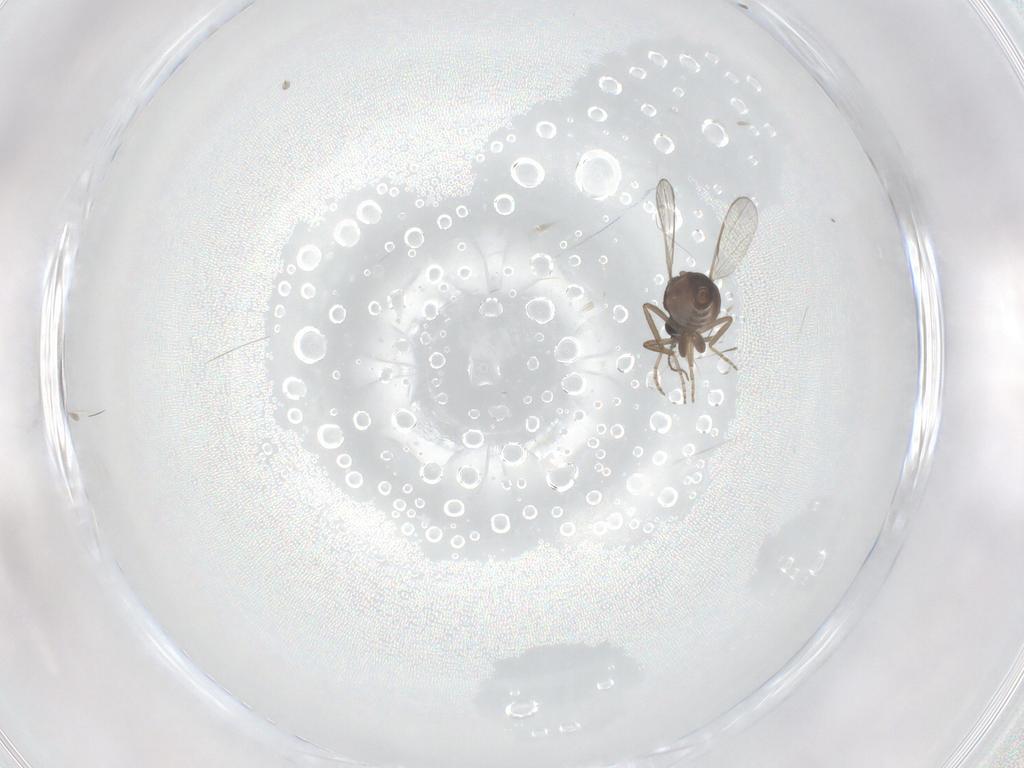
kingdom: Animalia
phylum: Arthropoda
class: Insecta
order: Diptera
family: Ceratopogonidae
